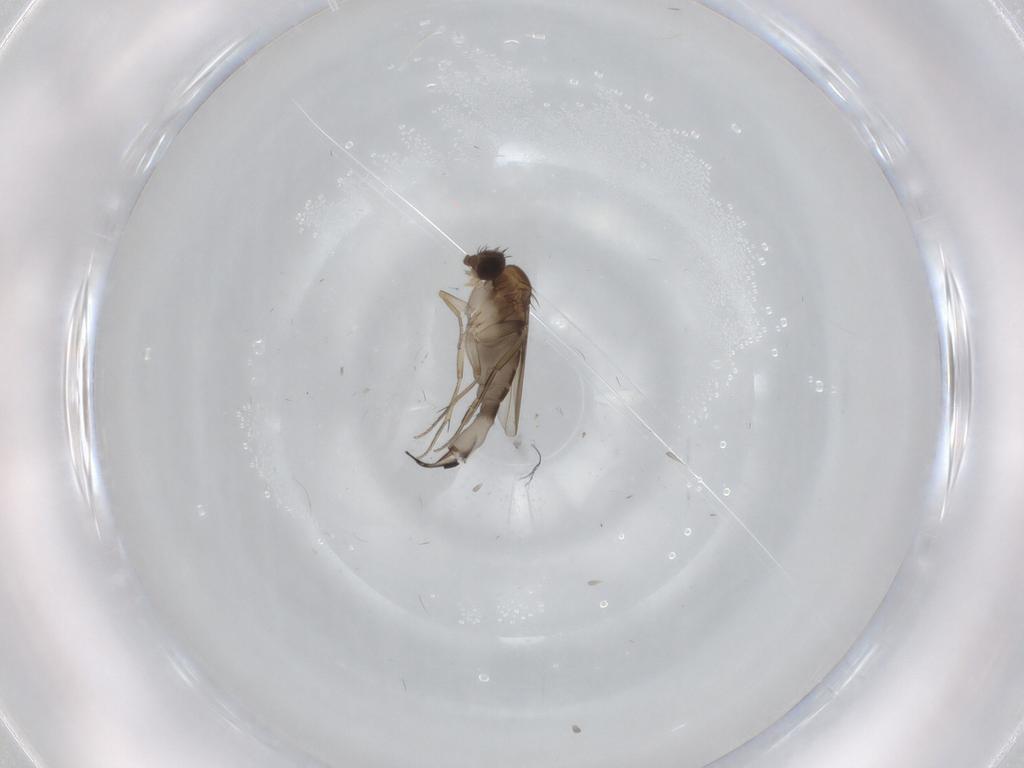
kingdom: Animalia
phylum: Arthropoda
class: Insecta
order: Diptera
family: Phoridae
